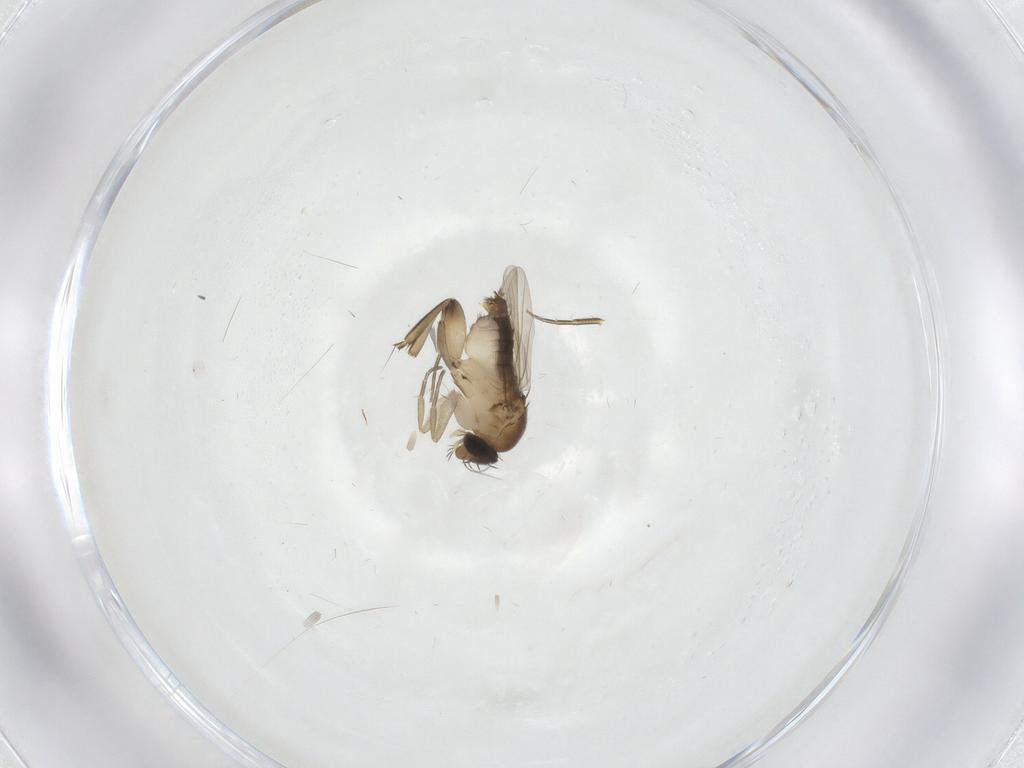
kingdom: Animalia
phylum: Arthropoda
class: Insecta
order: Diptera
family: Phoridae
